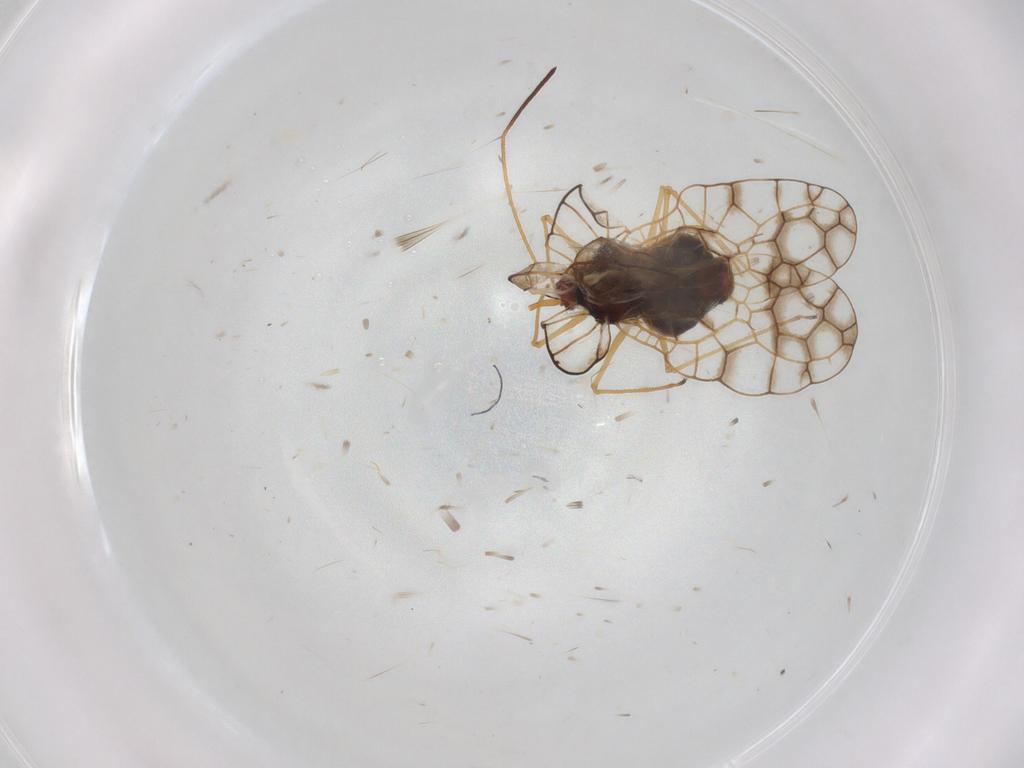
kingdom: Animalia
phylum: Arthropoda
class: Insecta
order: Hemiptera
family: Tingidae
